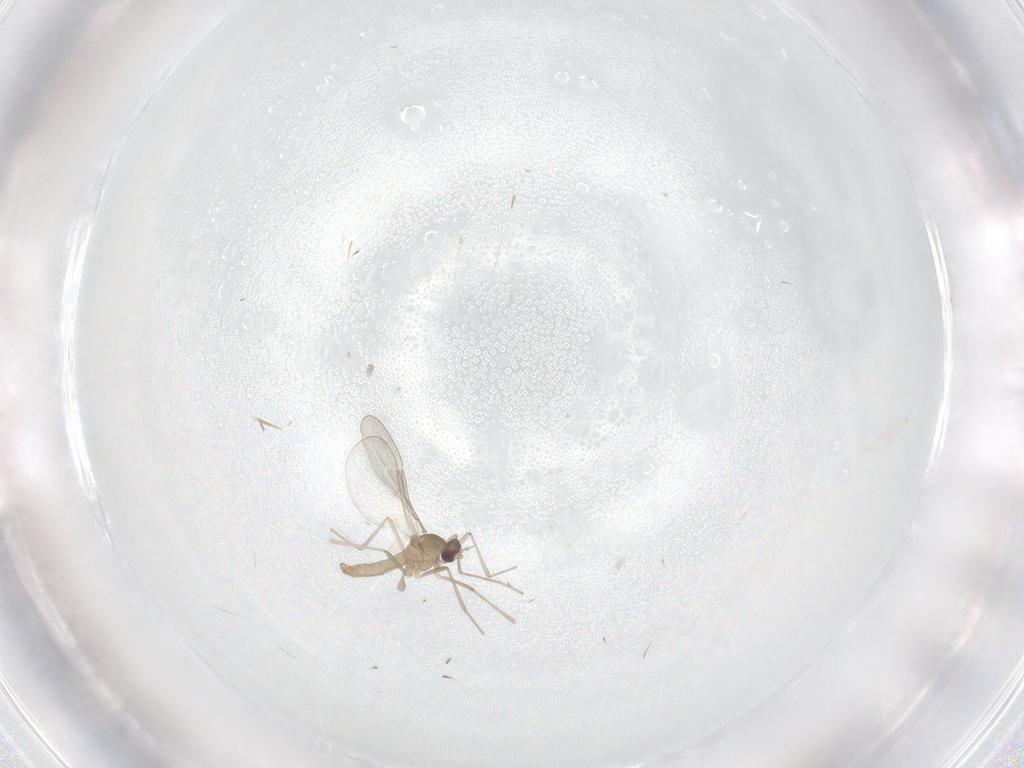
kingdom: Animalia
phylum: Arthropoda
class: Insecta
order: Diptera
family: Cecidomyiidae
